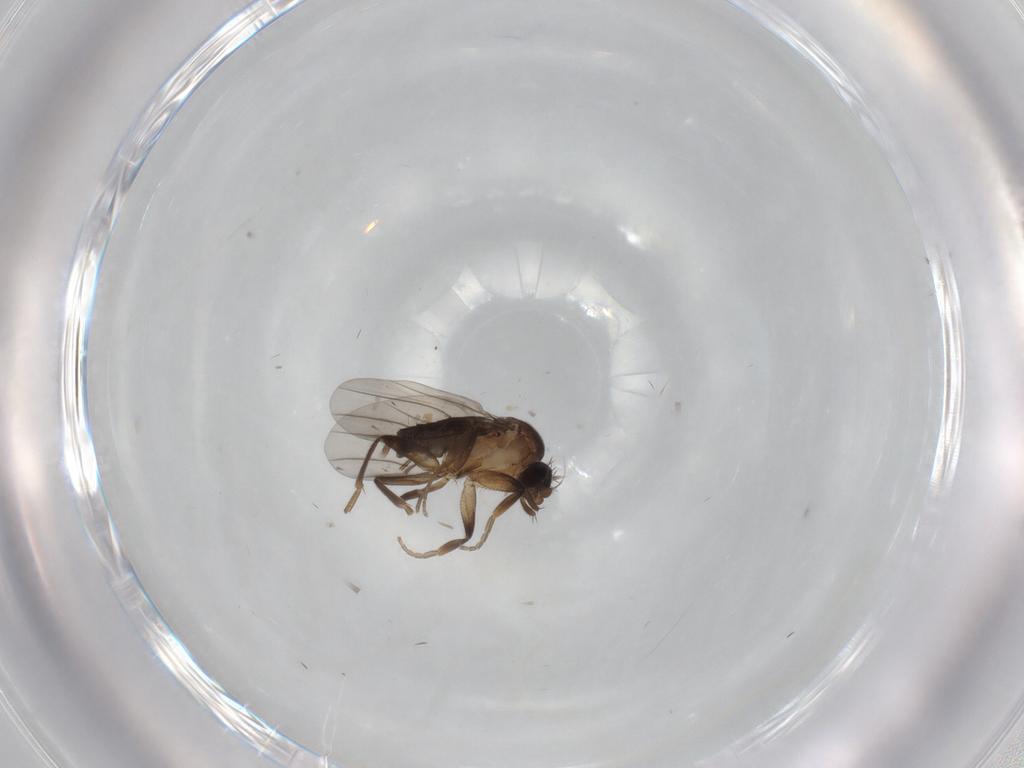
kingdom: Animalia
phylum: Arthropoda
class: Insecta
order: Diptera
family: Phoridae
